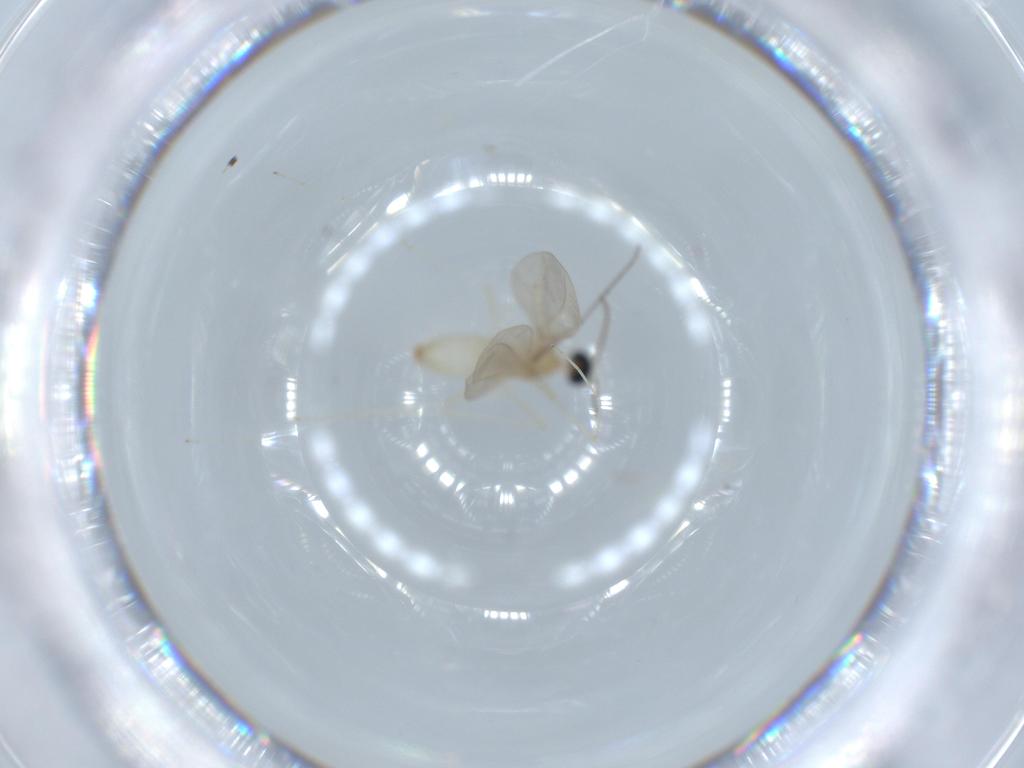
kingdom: Animalia
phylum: Arthropoda
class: Insecta
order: Diptera
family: Cecidomyiidae
